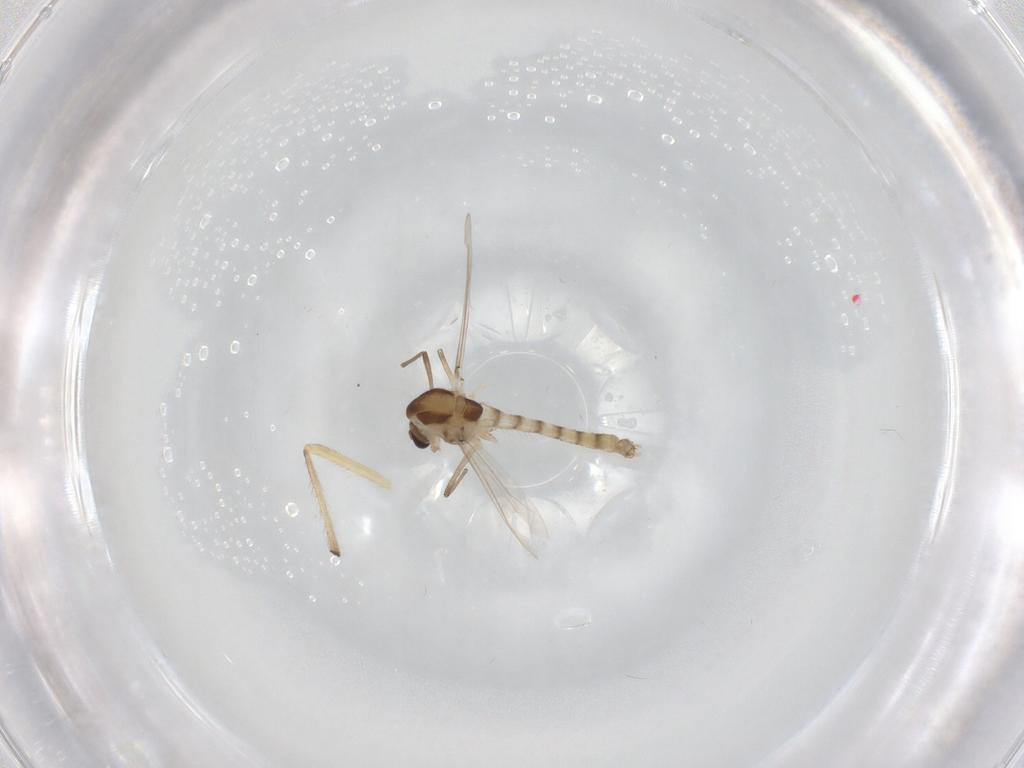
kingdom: Animalia
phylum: Arthropoda
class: Insecta
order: Diptera
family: Chironomidae
